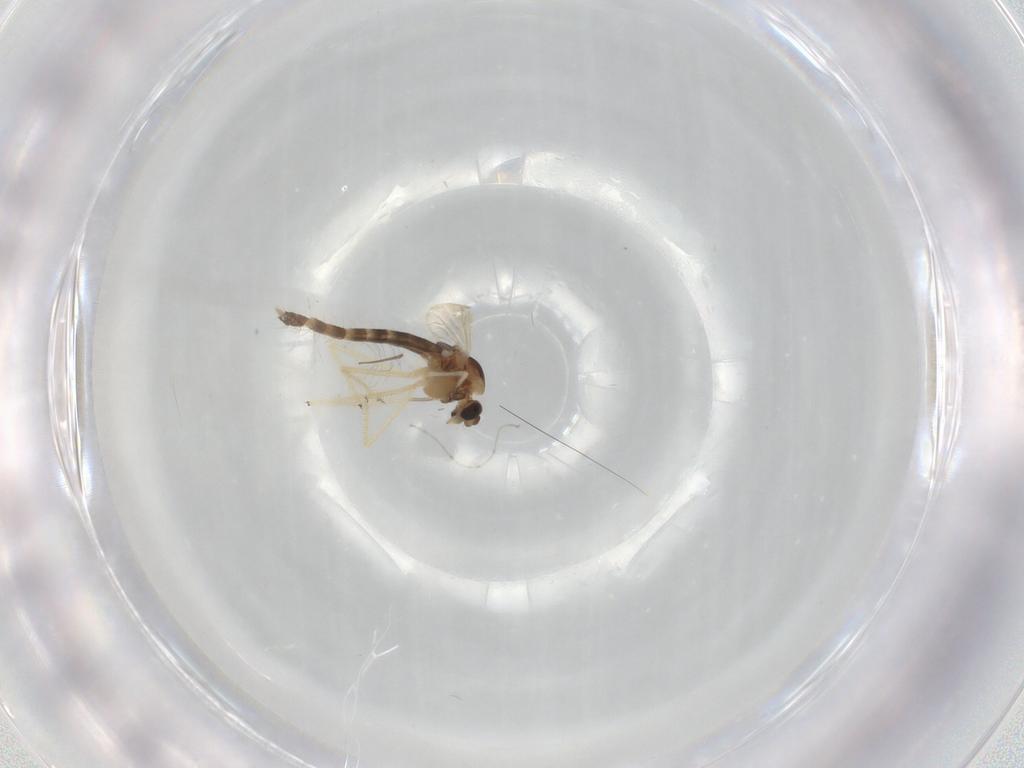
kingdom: Animalia
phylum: Arthropoda
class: Insecta
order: Diptera
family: Chironomidae
